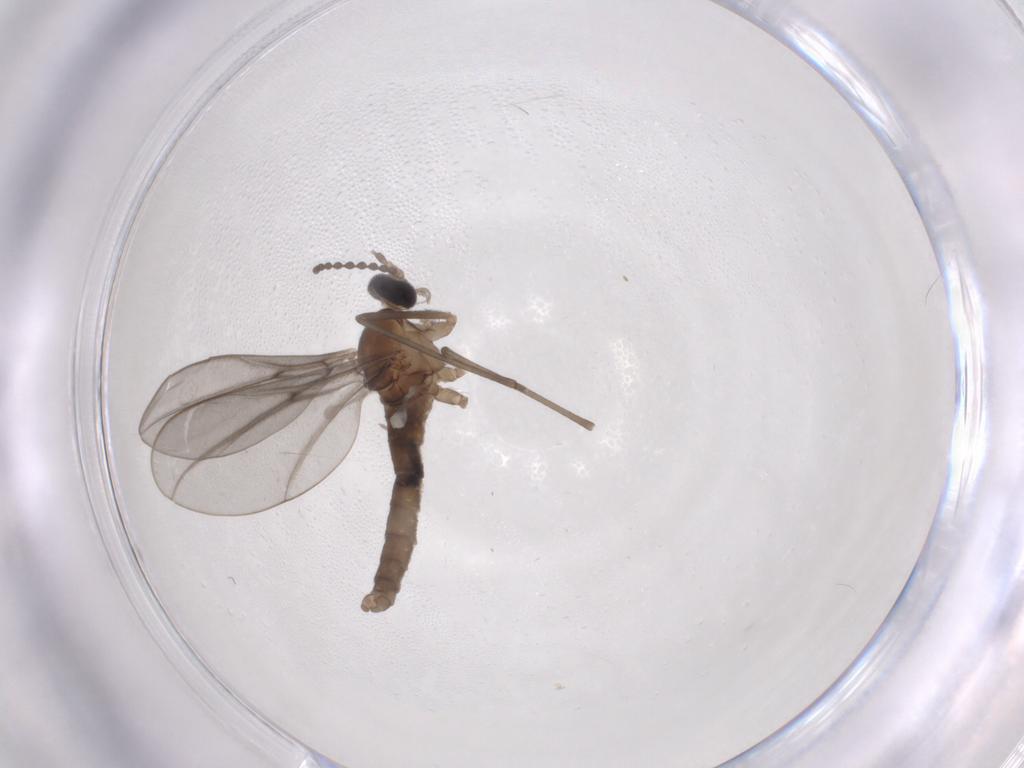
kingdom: Animalia
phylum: Arthropoda
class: Insecta
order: Diptera
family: Cecidomyiidae
